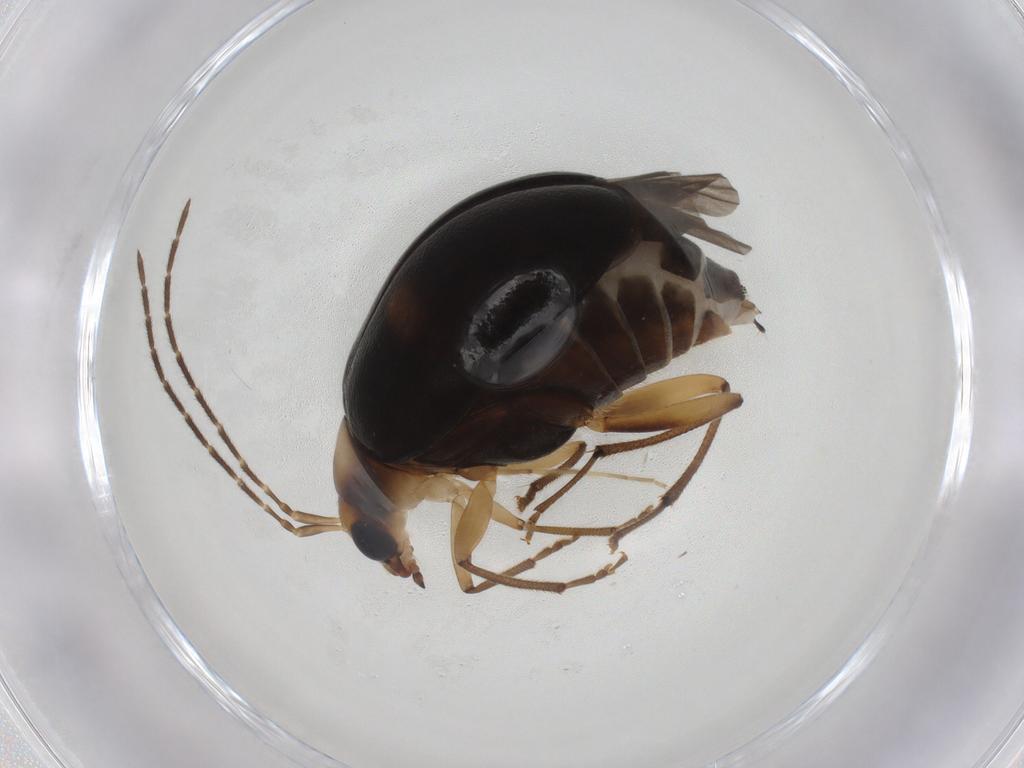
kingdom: Animalia
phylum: Arthropoda
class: Insecta
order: Coleoptera
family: Chrysomelidae
